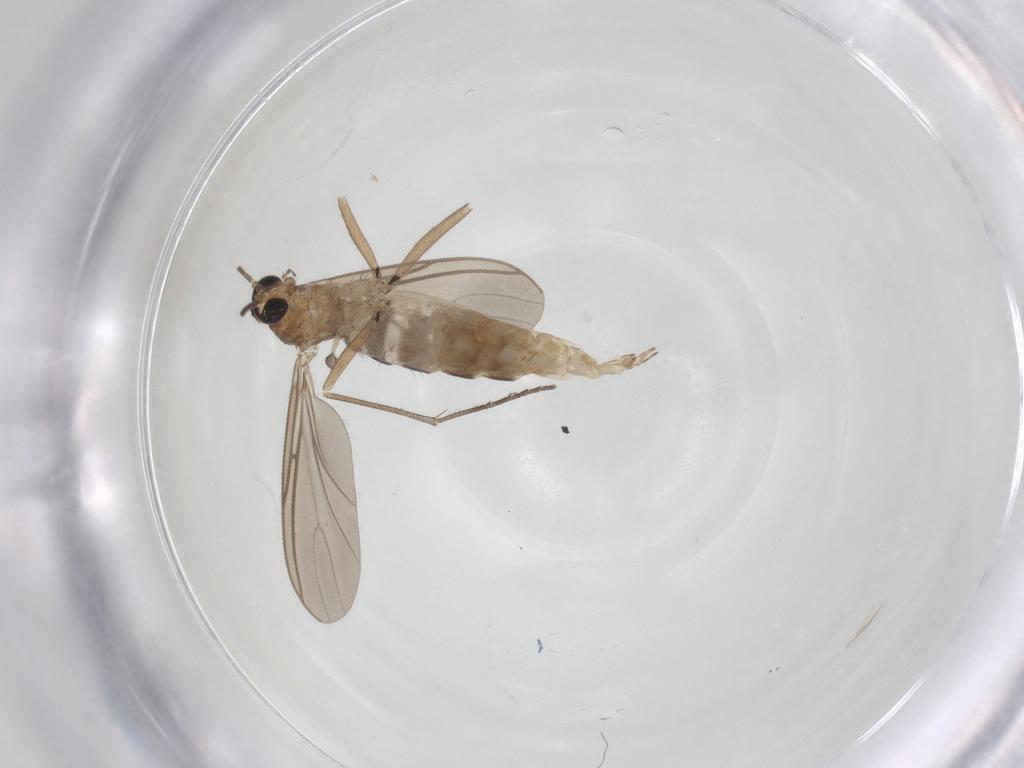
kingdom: Animalia
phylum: Arthropoda
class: Insecta
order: Diptera
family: Sciaridae
